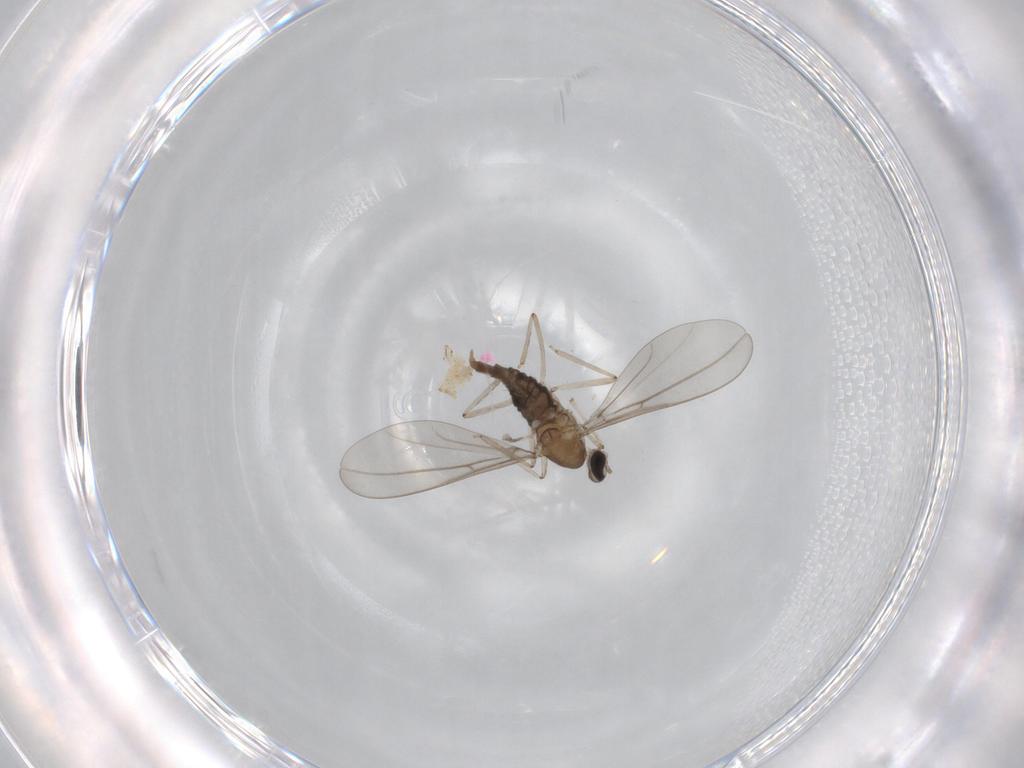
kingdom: Animalia
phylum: Arthropoda
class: Insecta
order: Diptera
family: Cecidomyiidae
